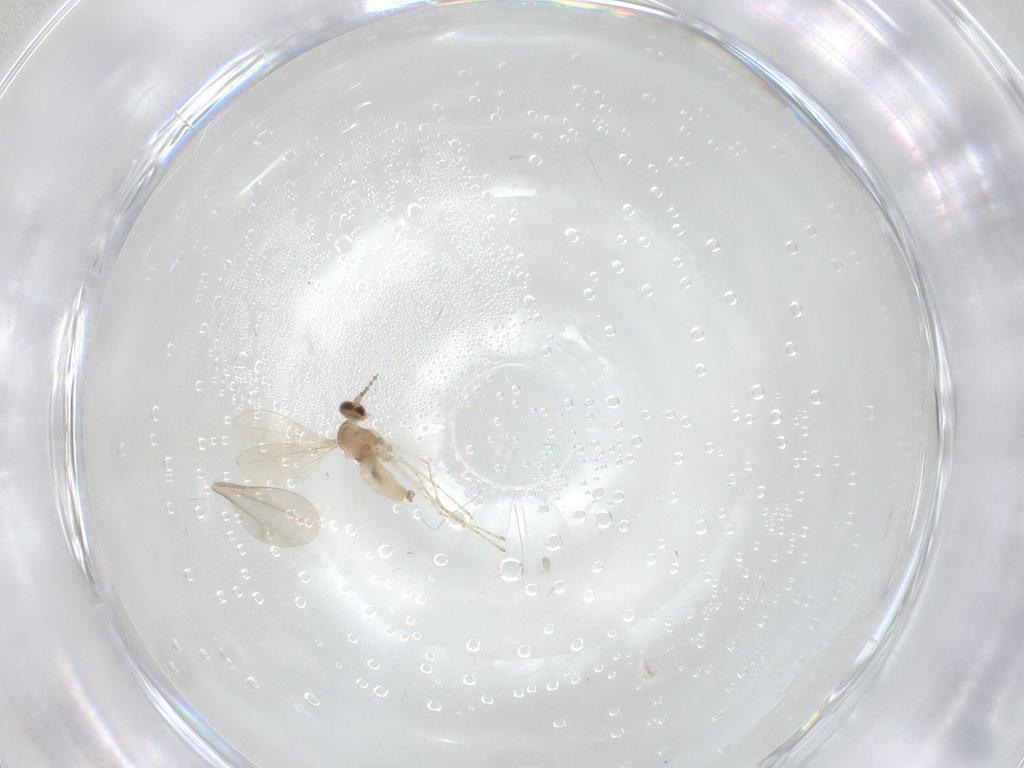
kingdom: Animalia
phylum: Arthropoda
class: Insecta
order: Diptera
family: Cecidomyiidae
